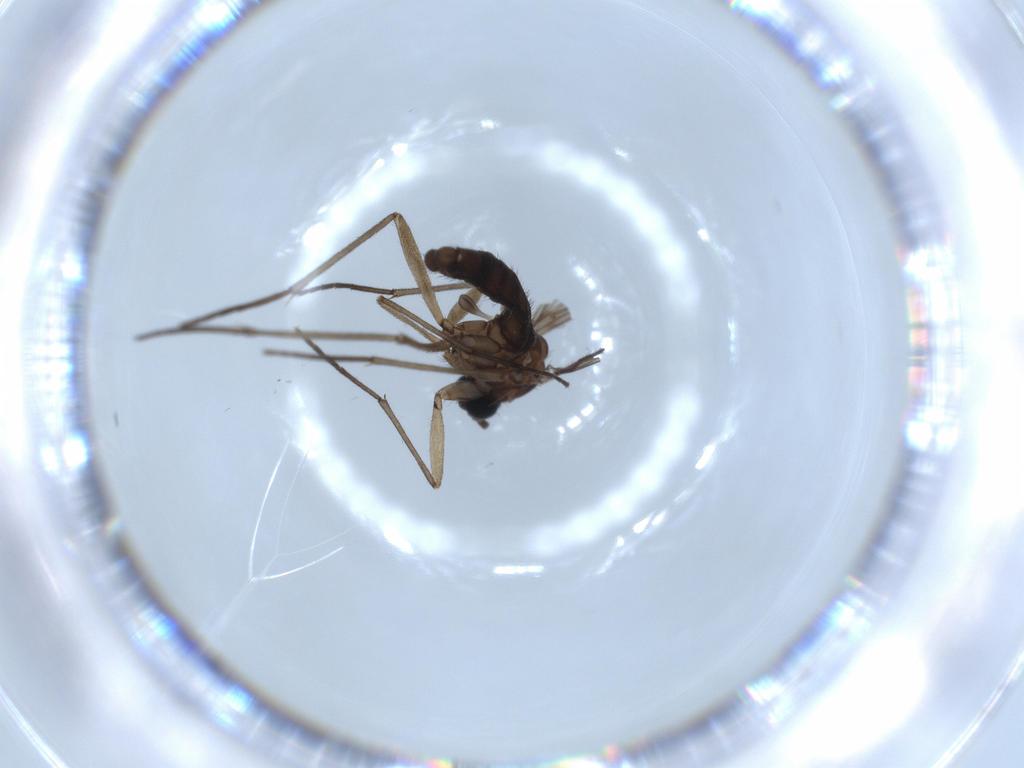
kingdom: Animalia
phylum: Arthropoda
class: Insecta
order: Diptera
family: Sciaridae
